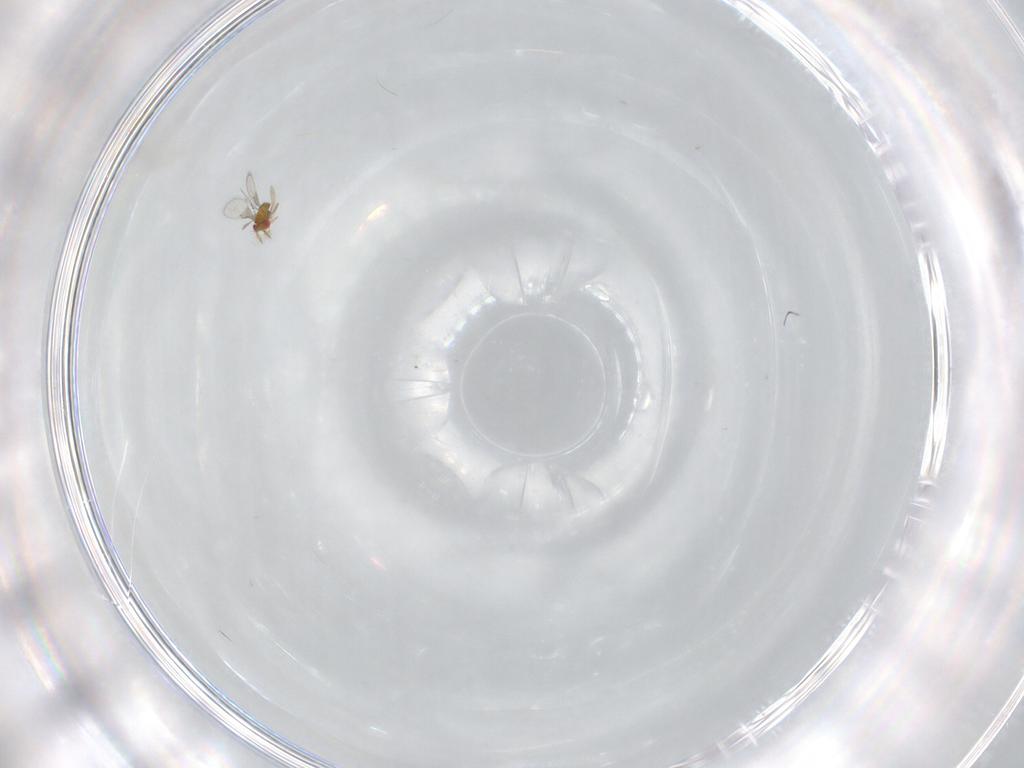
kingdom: Animalia
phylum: Arthropoda
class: Insecta
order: Hymenoptera
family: Trichogrammatidae
